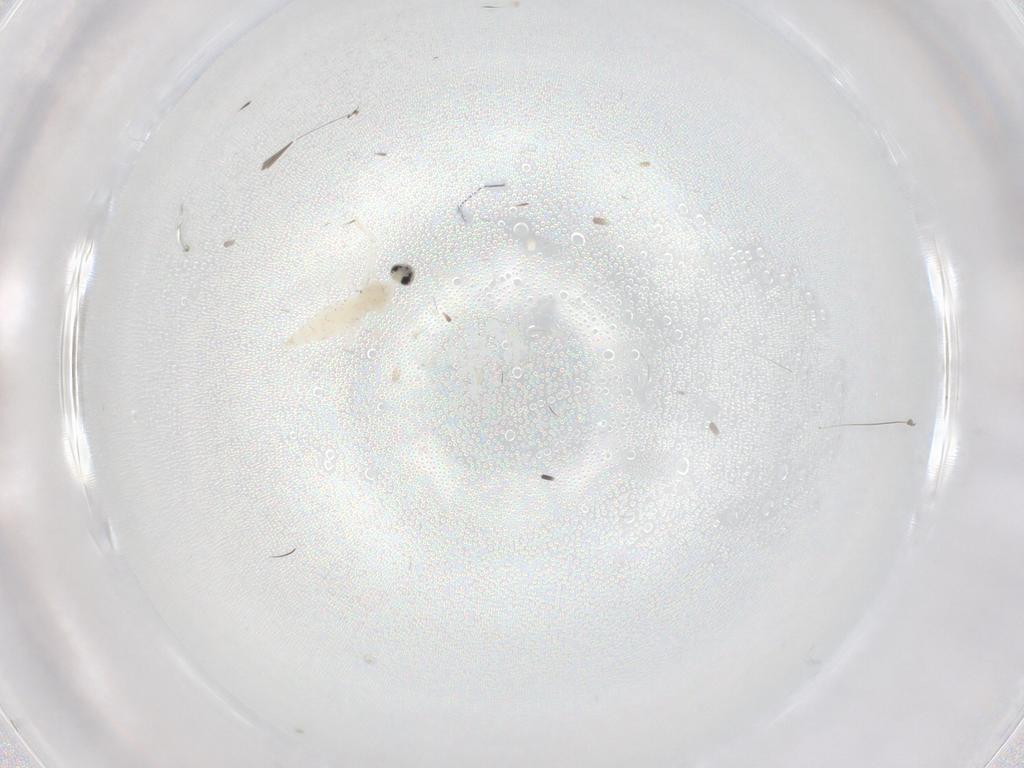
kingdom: Animalia
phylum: Arthropoda
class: Insecta
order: Diptera
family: Cecidomyiidae
